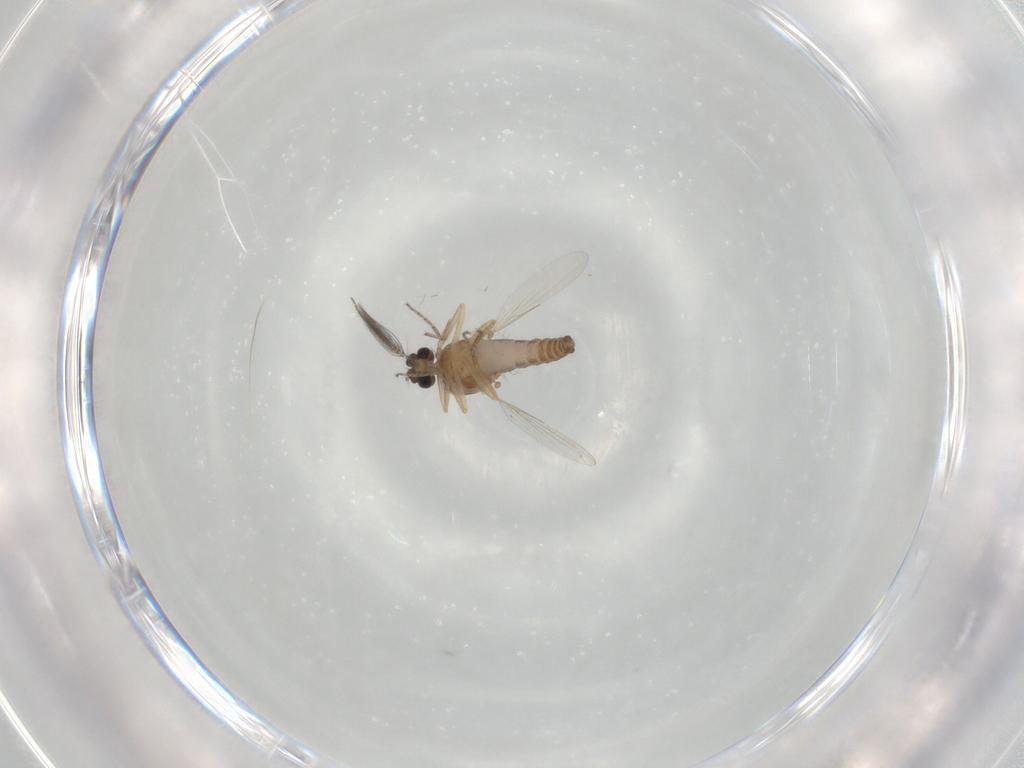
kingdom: Animalia
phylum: Arthropoda
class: Insecta
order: Diptera
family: Ceratopogonidae
